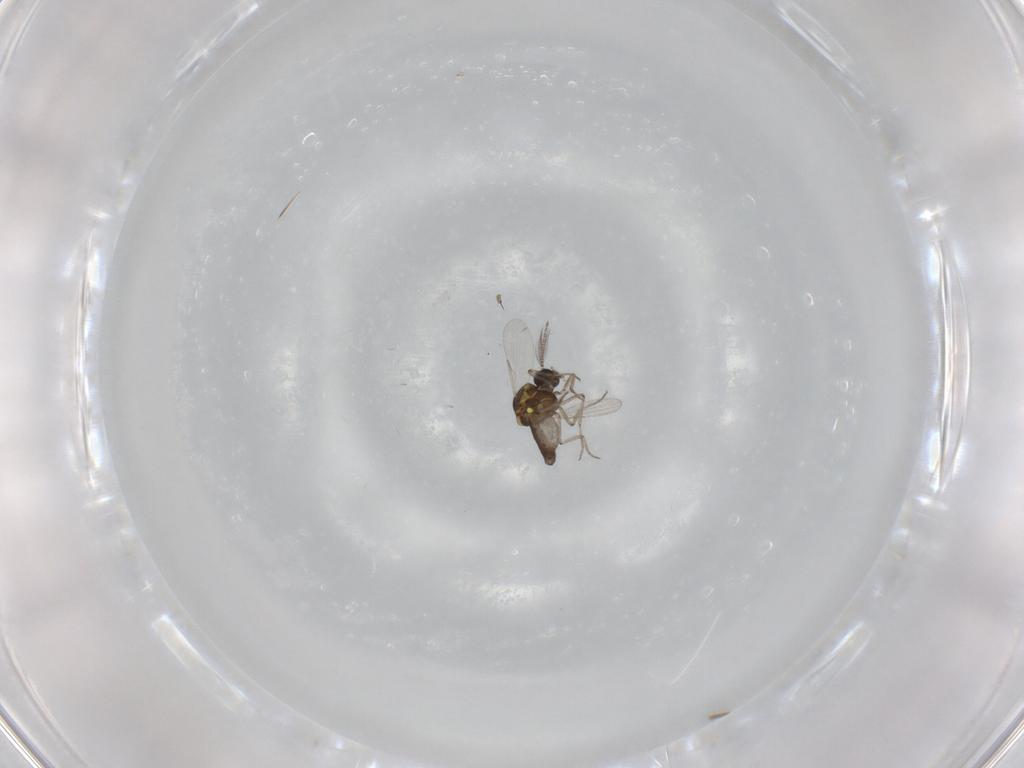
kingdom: Animalia
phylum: Arthropoda
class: Insecta
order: Diptera
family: Ceratopogonidae
